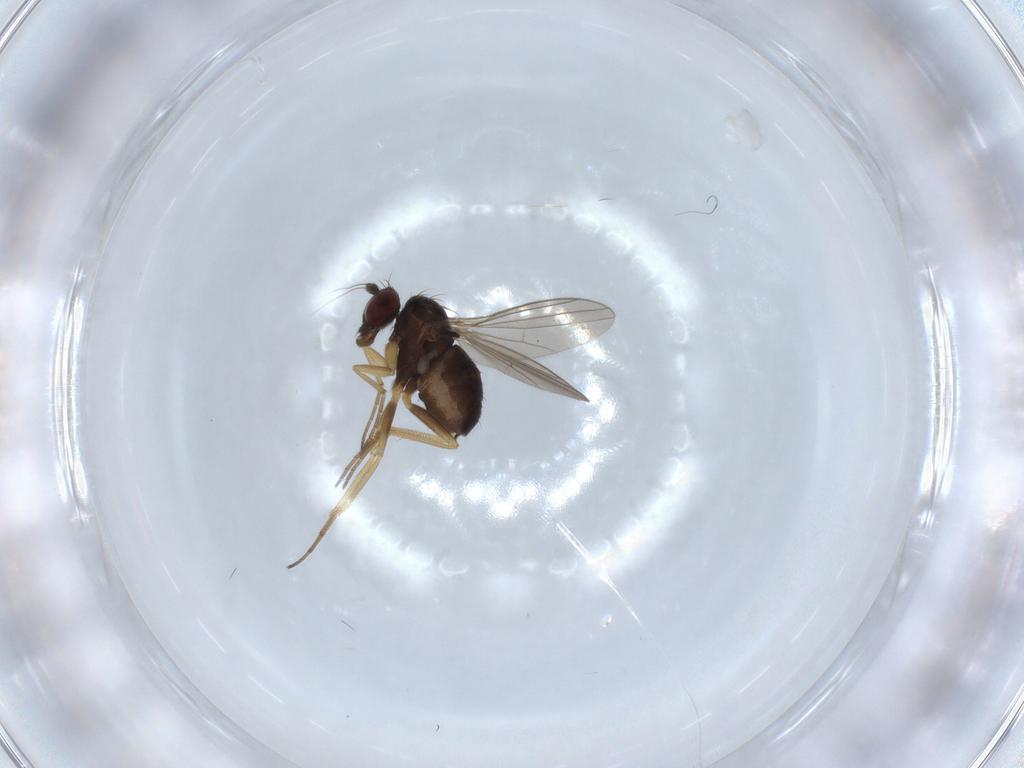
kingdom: Animalia
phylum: Arthropoda
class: Insecta
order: Diptera
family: Dolichopodidae
